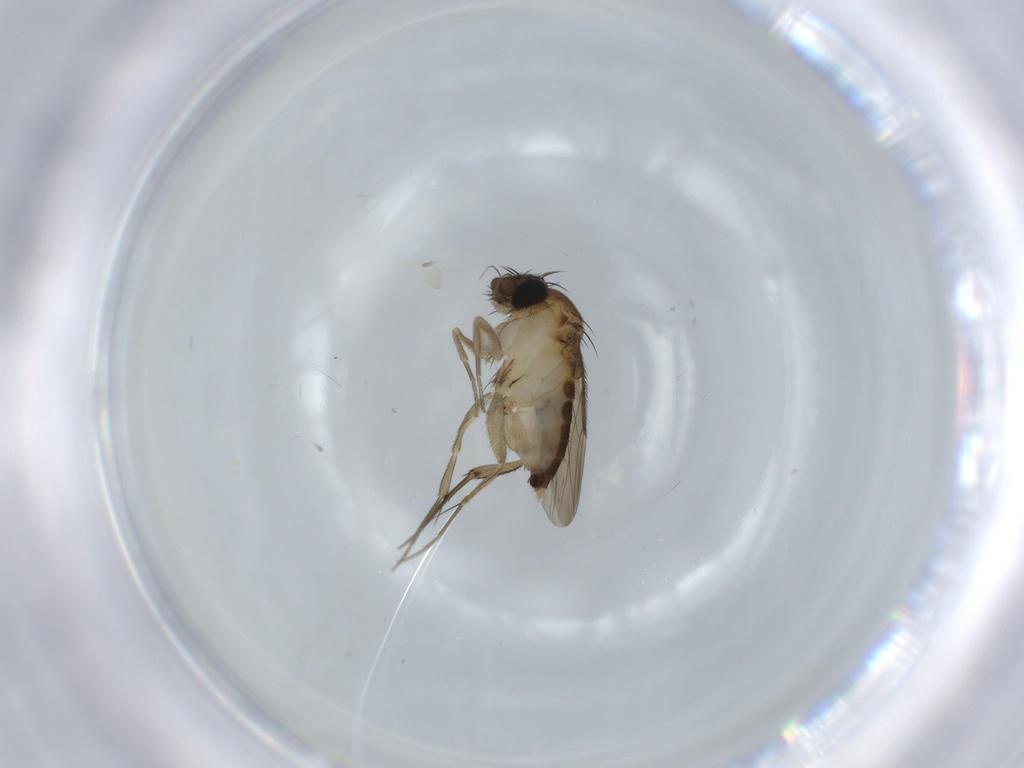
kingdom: Animalia
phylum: Arthropoda
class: Insecta
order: Diptera
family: Phoridae
